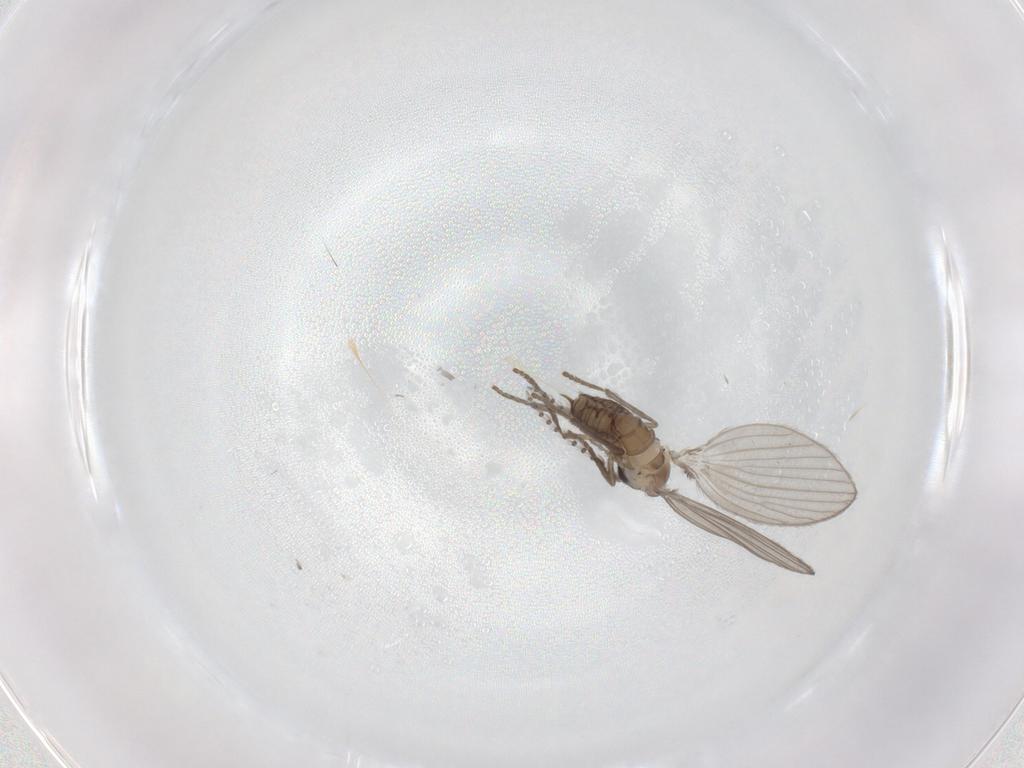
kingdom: Animalia
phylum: Arthropoda
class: Insecta
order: Diptera
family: Psychodidae
